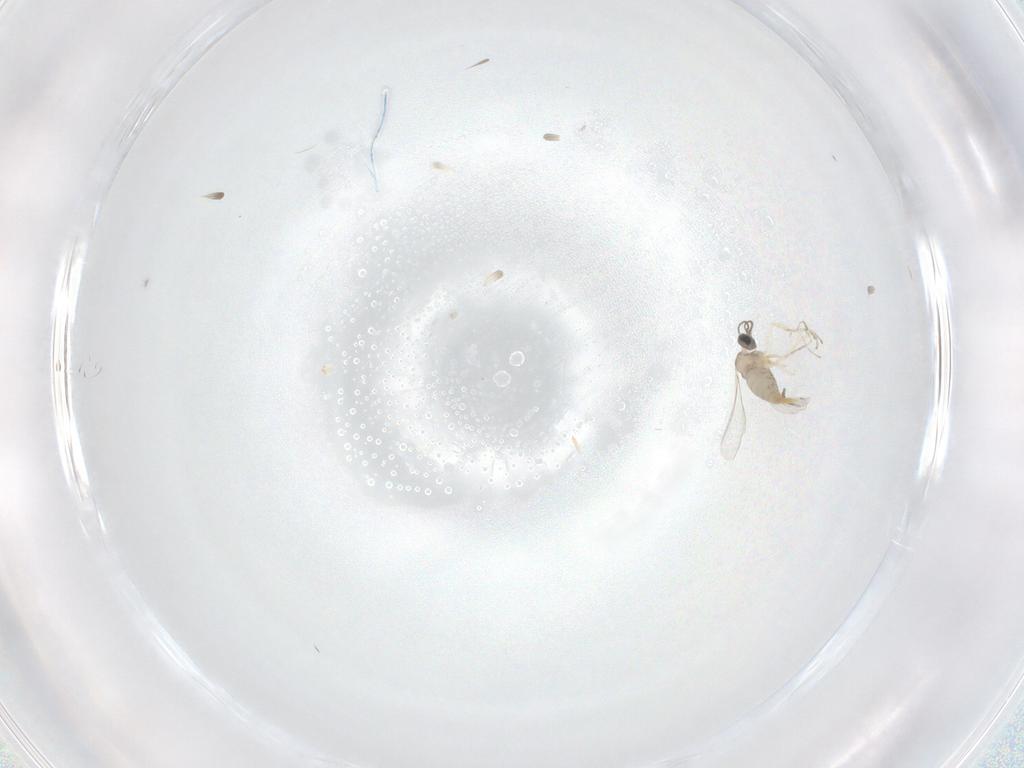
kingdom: Animalia
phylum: Arthropoda
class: Insecta
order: Diptera
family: Cecidomyiidae
